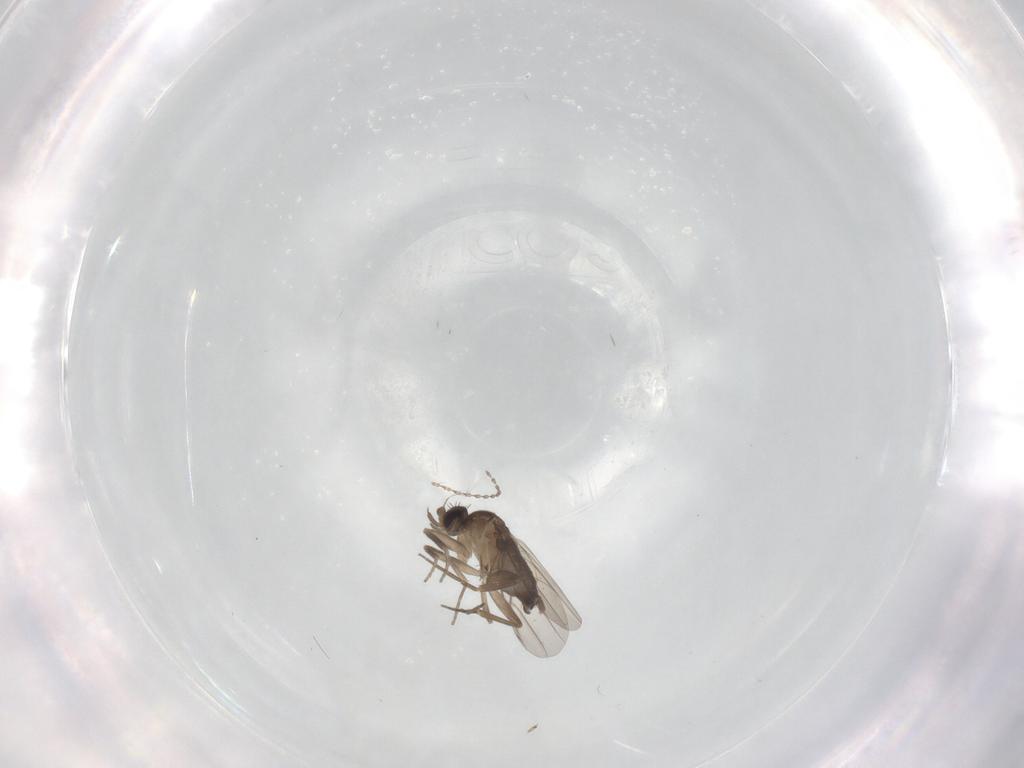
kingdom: Animalia
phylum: Arthropoda
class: Insecta
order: Diptera
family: Phoridae
